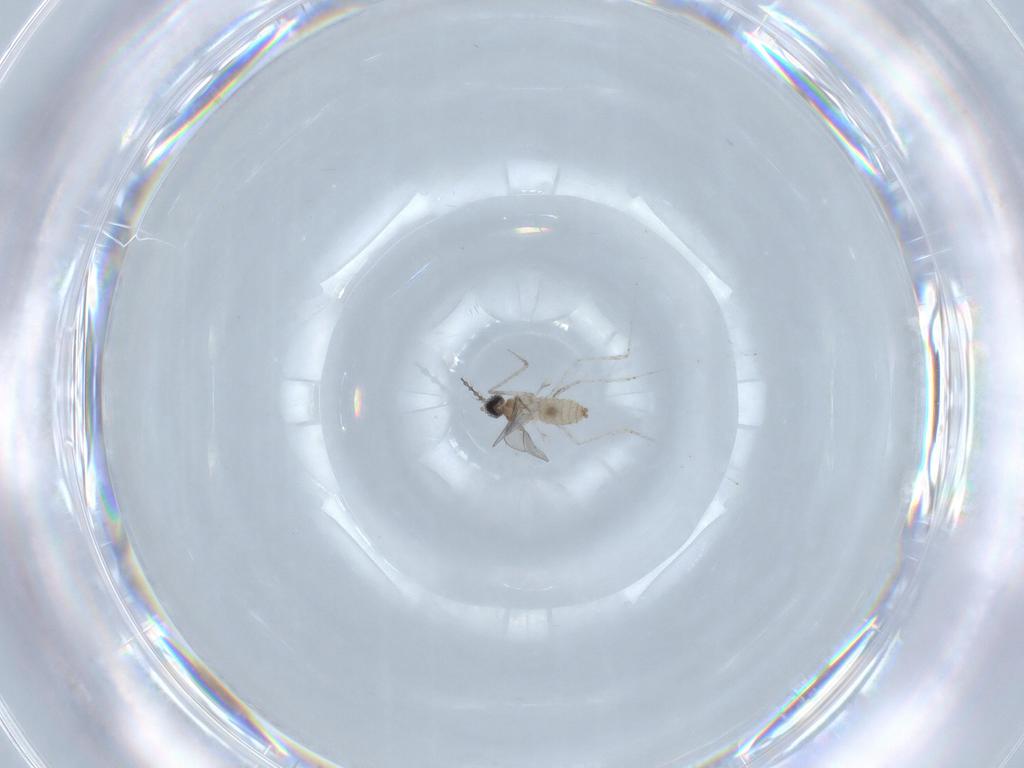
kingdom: Animalia
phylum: Arthropoda
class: Insecta
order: Diptera
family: Cecidomyiidae
